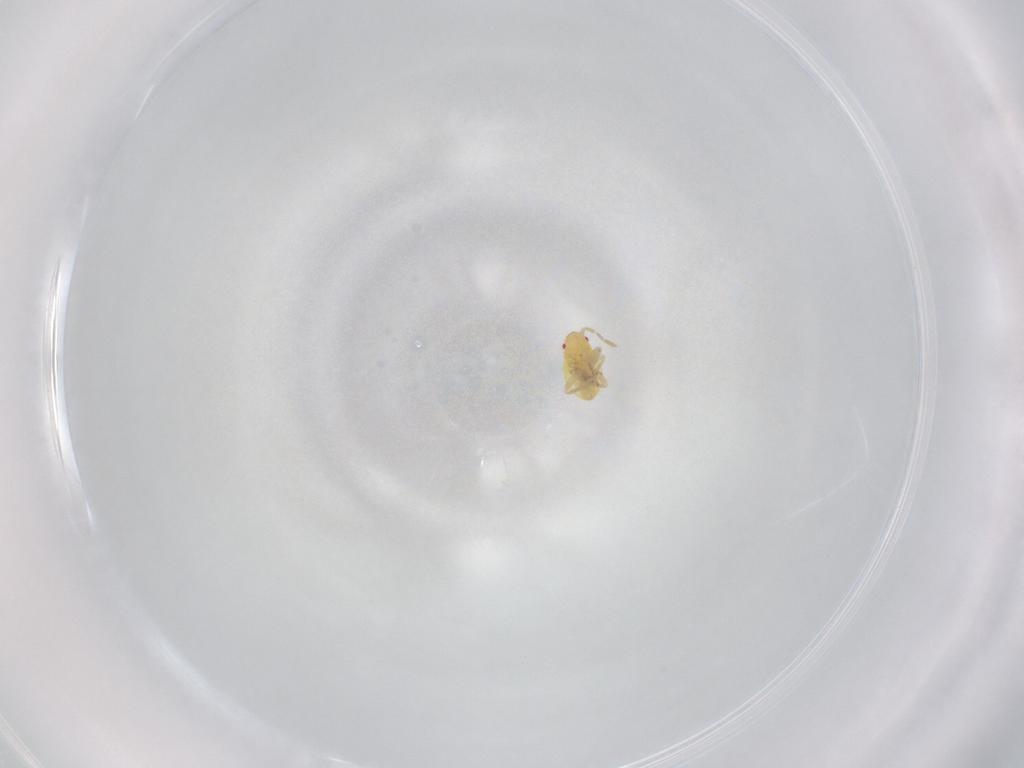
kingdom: Animalia
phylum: Arthropoda
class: Insecta
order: Hemiptera
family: Miridae
